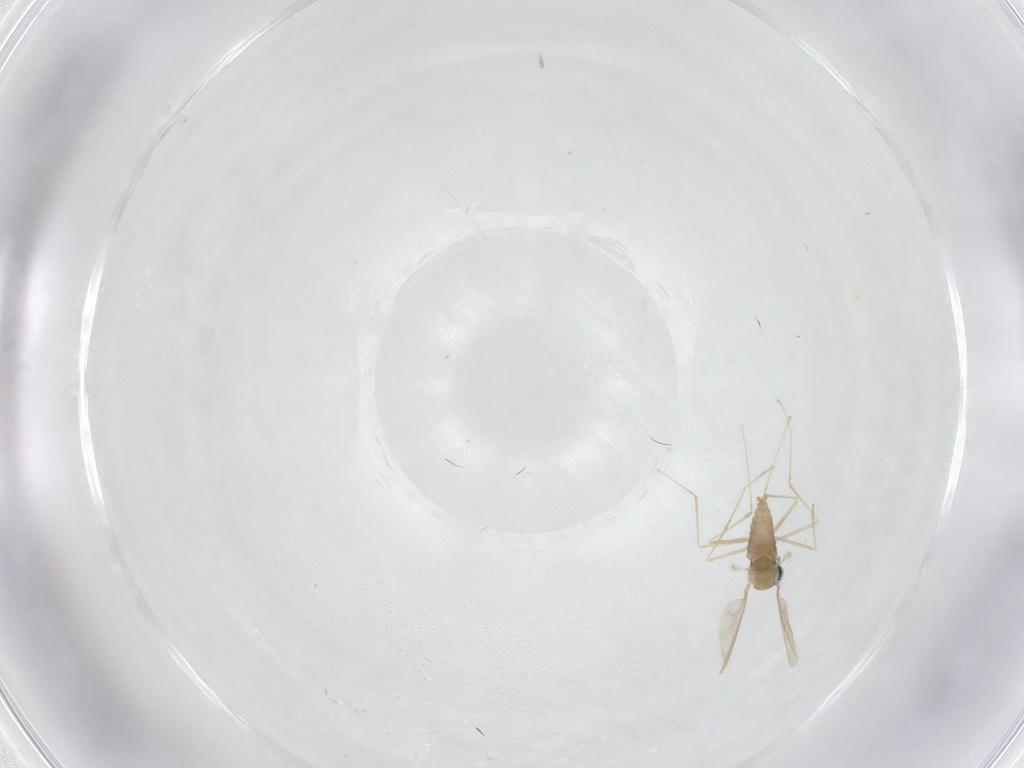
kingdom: Animalia
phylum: Arthropoda
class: Insecta
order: Diptera
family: Cecidomyiidae
